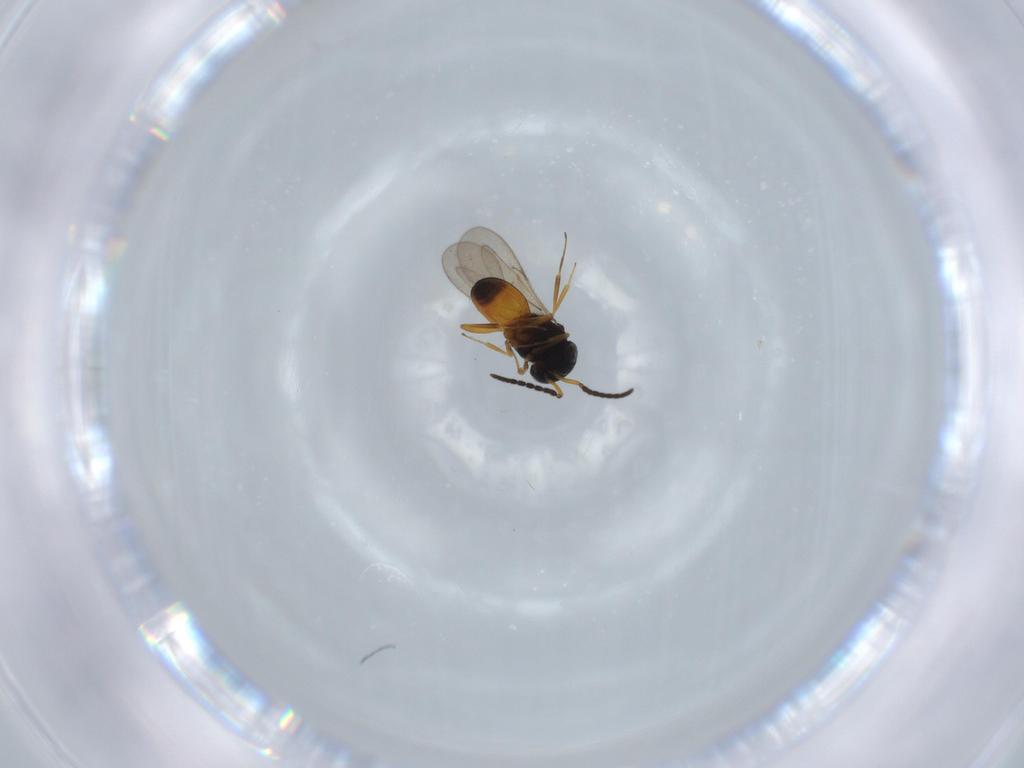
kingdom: Animalia
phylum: Arthropoda
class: Insecta
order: Hymenoptera
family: Scelionidae
